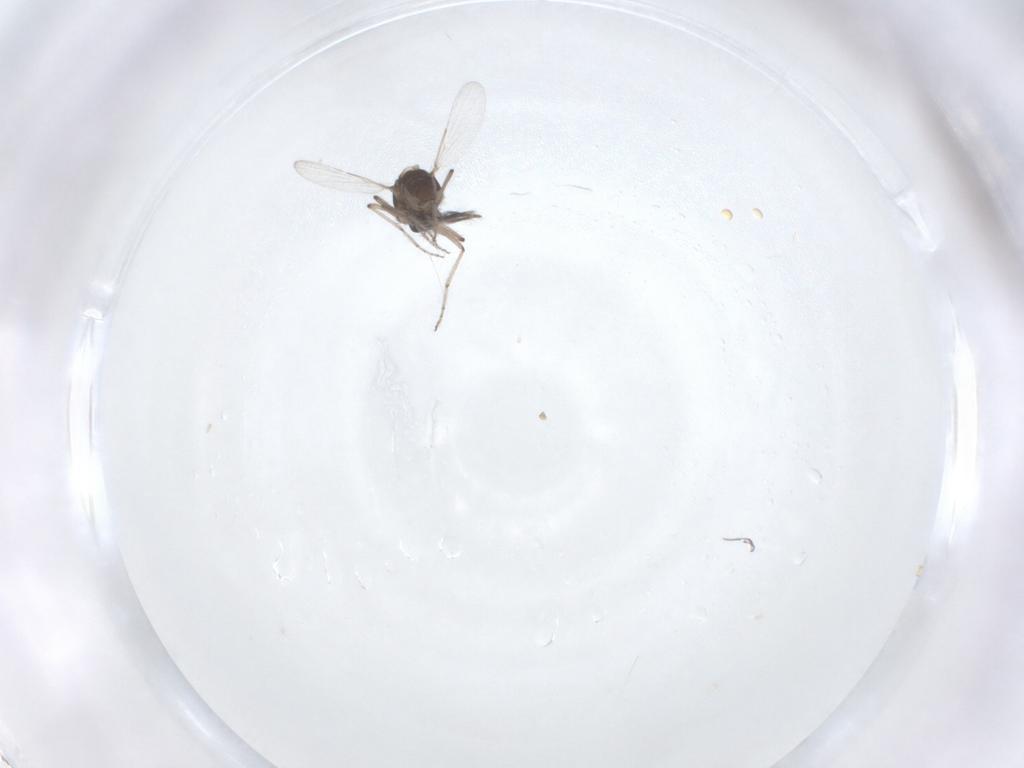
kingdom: Animalia
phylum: Arthropoda
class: Insecta
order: Diptera
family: Ceratopogonidae
